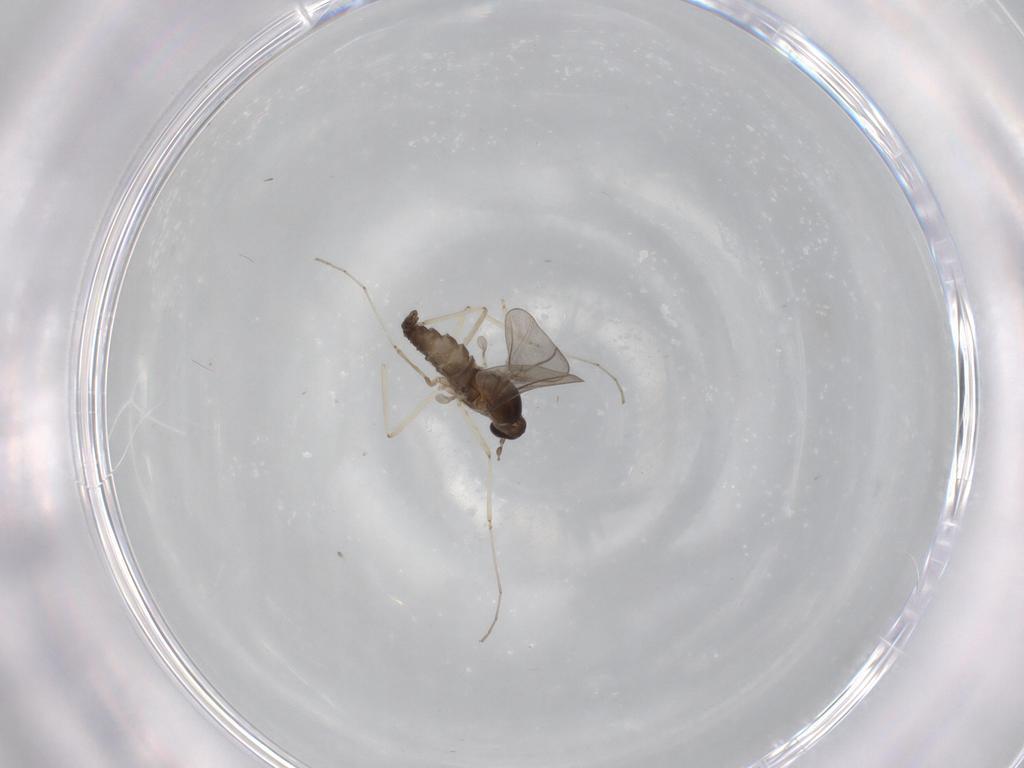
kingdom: Animalia
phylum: Arthropoda
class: Insecta
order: Diptera
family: Cecidomyiidae
